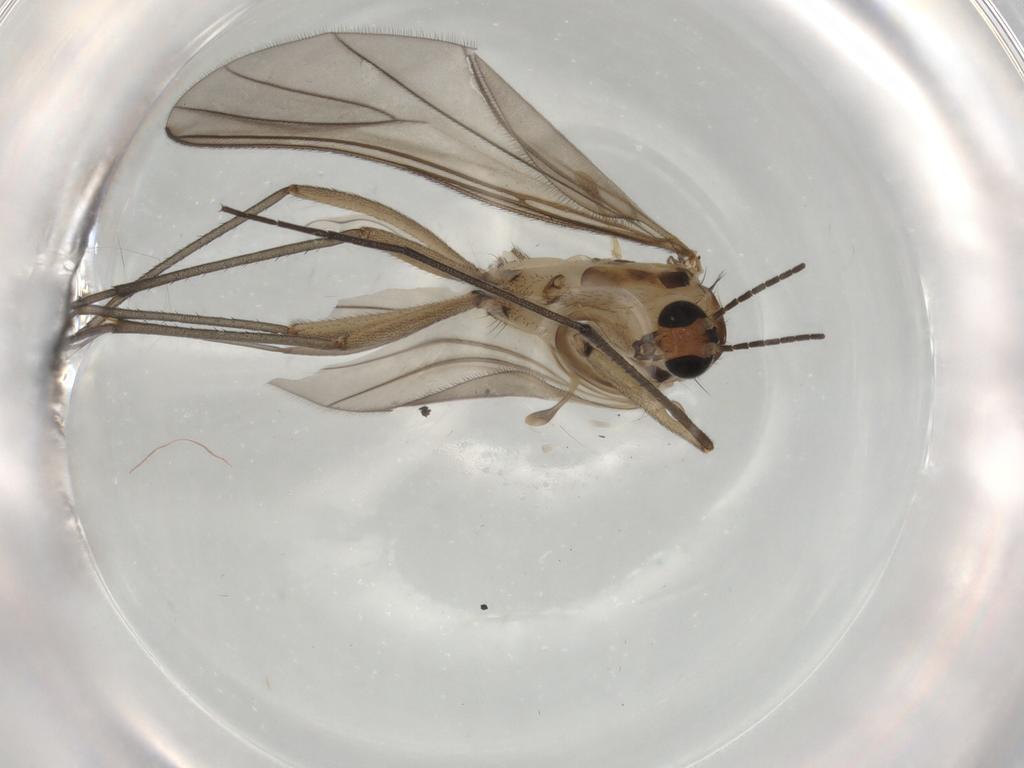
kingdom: Animalia
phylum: Arthropoda
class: Insecta
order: Diptera
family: Sciaridae
